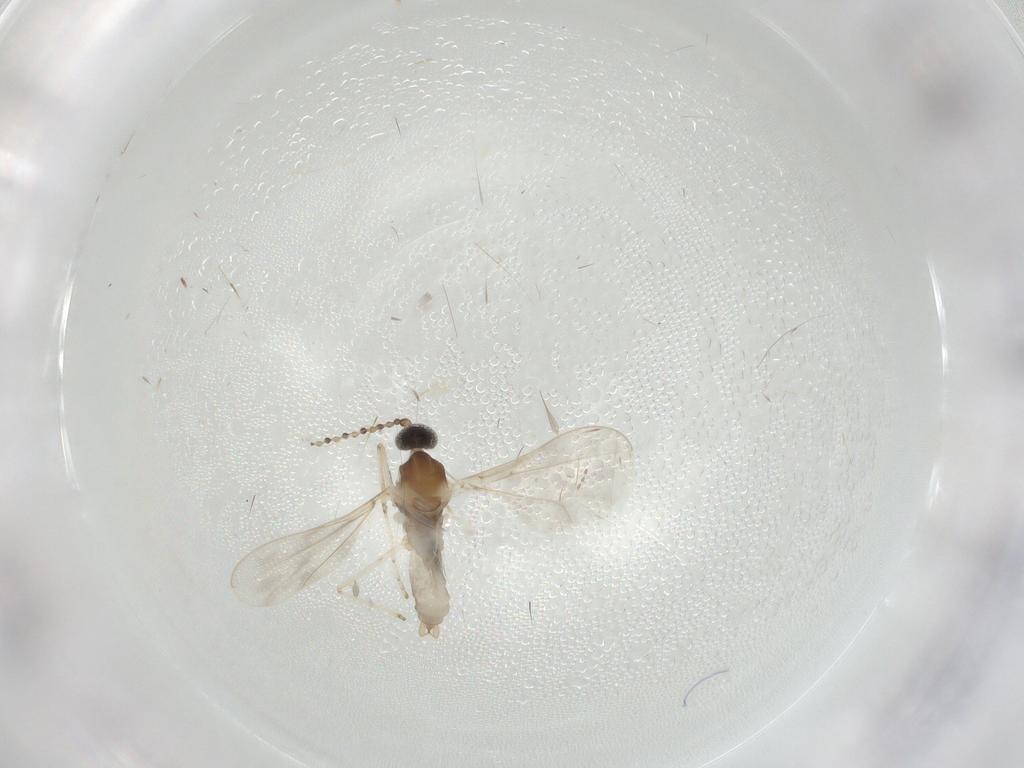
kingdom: Animalia
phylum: Arthropoda
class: Insecta
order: Diptera
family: Cecidomyiidae
